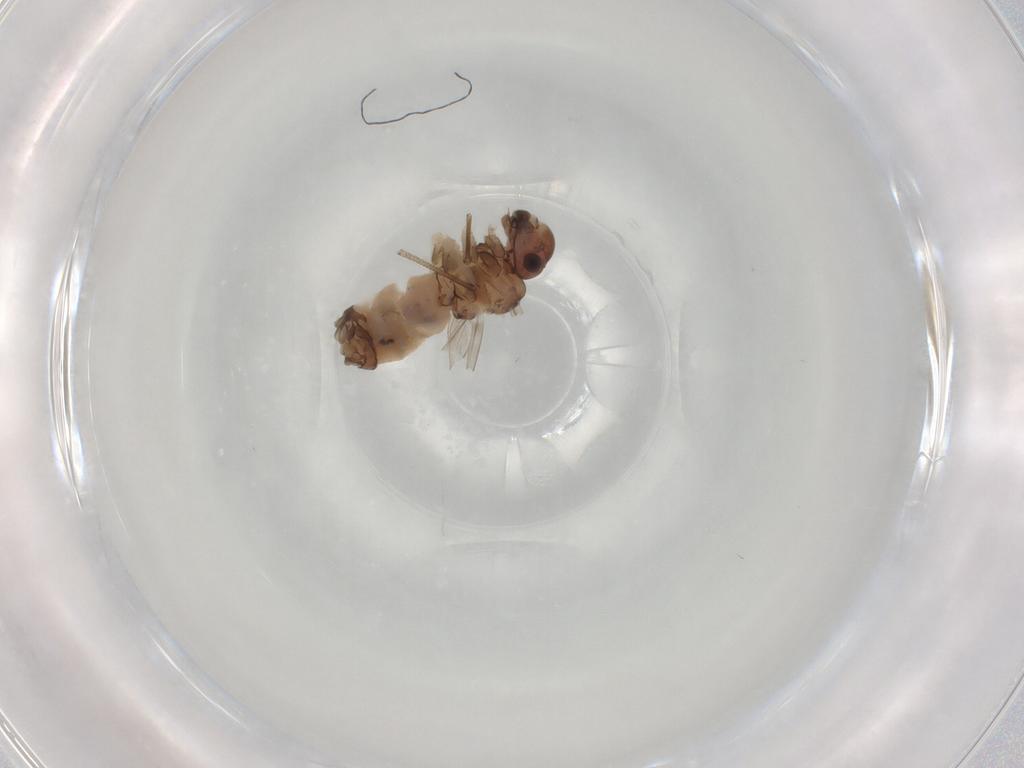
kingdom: Animalia
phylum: Arthropoda
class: Insecta
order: Psocodea
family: Peripsocidae
